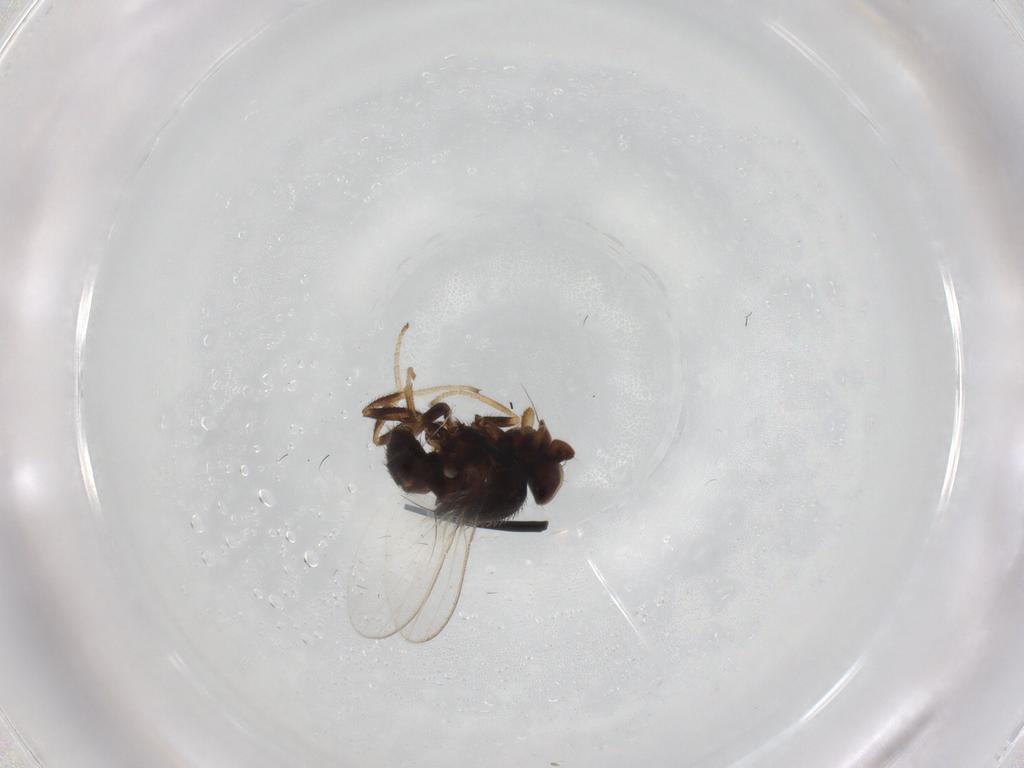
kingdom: Animalia
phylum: Arthropoda
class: Insecta
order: Diptera
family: Milichiidae
